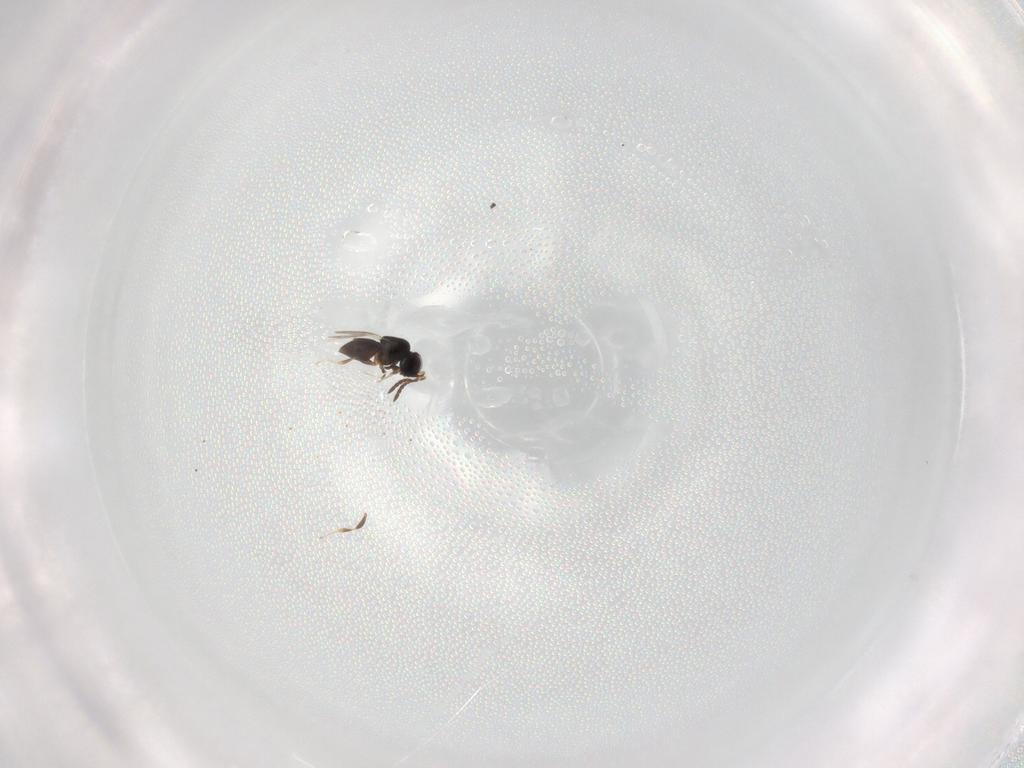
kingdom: Animalia
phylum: Arthropoda
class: Insecta
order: Hymenoptera
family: Ceraphronidae
